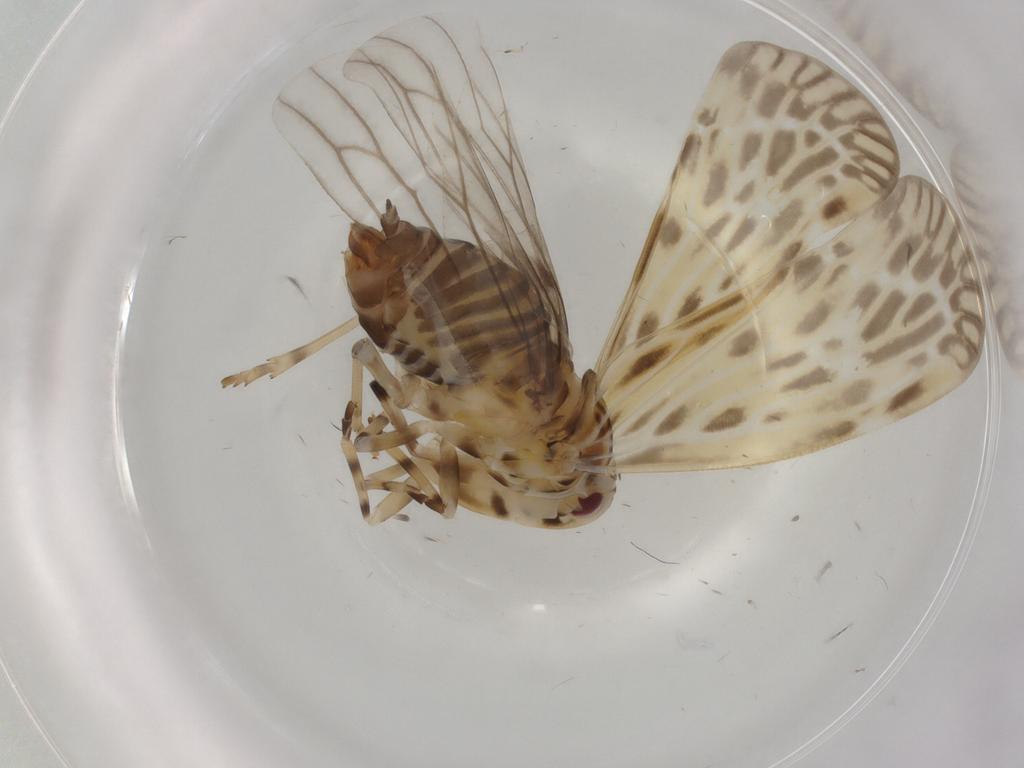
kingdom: Animalia
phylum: Arthropoda
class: Insecta
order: Hemiptera
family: Derbidae
